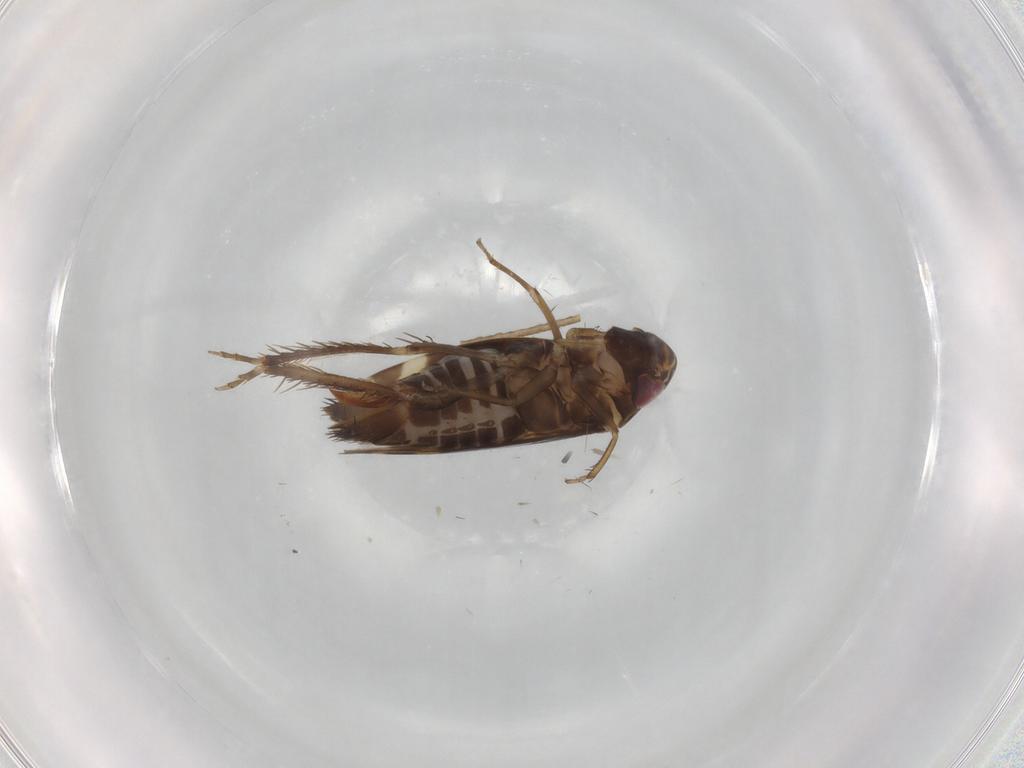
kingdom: Animalia
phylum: Arthropoda
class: Insecta
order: Hemiptera
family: Cicadellidae
